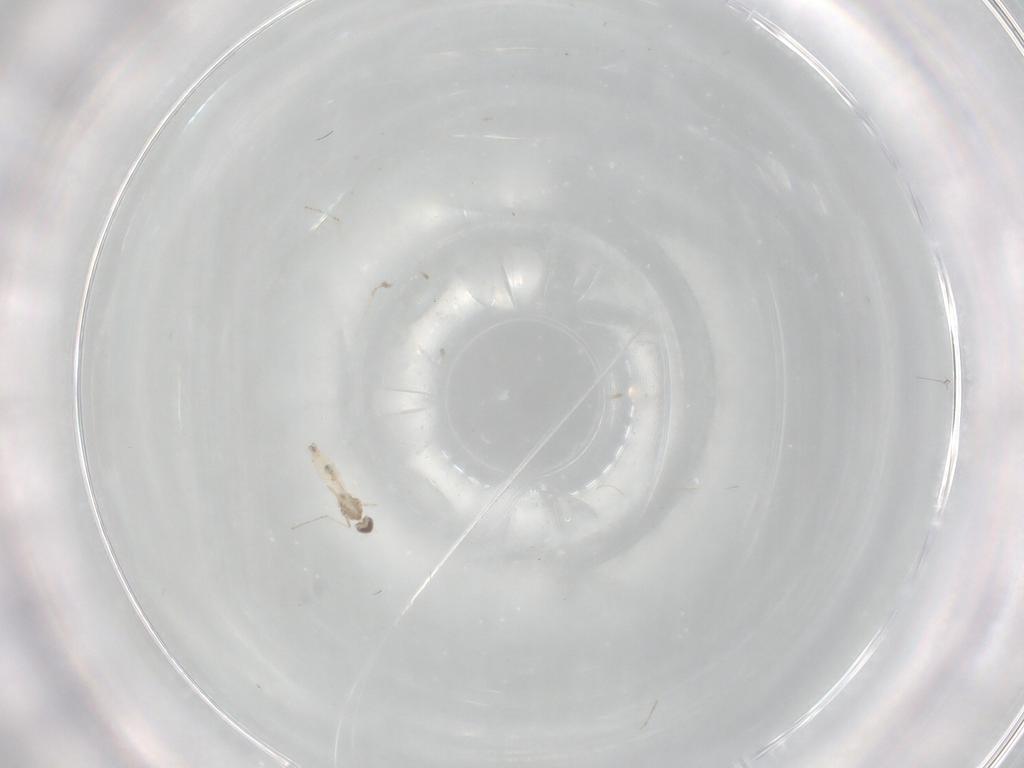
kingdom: Animalia
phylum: Arthropoda
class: Insecta
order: Diptera
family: Cecidomyiidae
